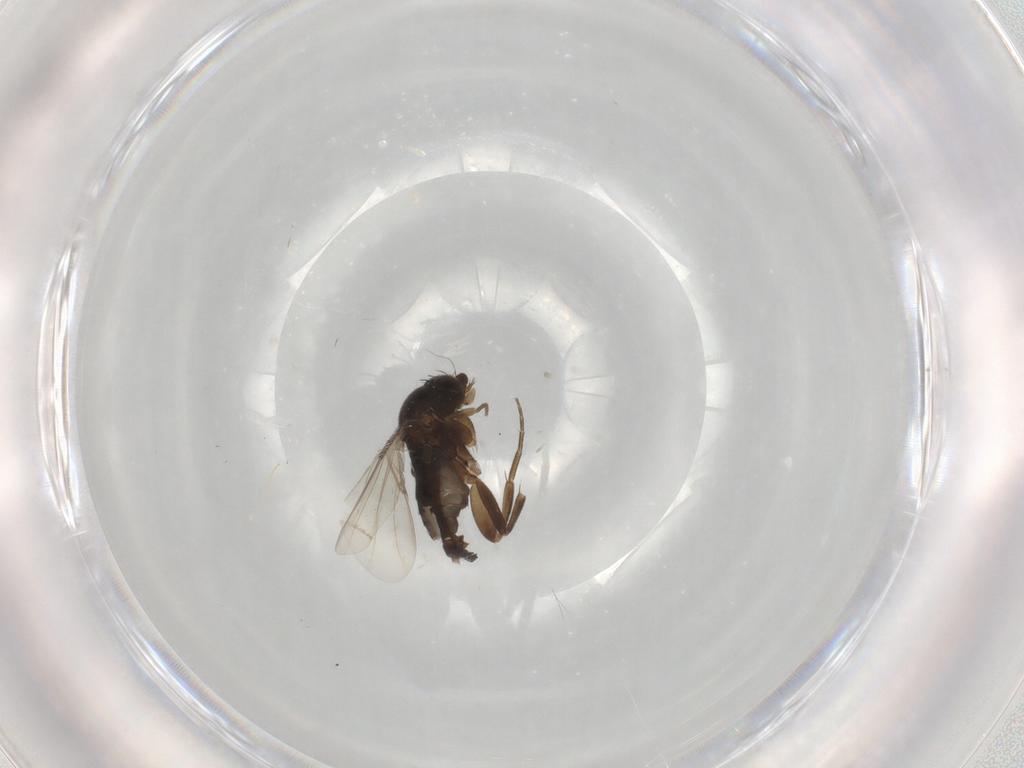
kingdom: Animalia
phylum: Arthropoda
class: Insecta
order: Diptera
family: Phoridae
